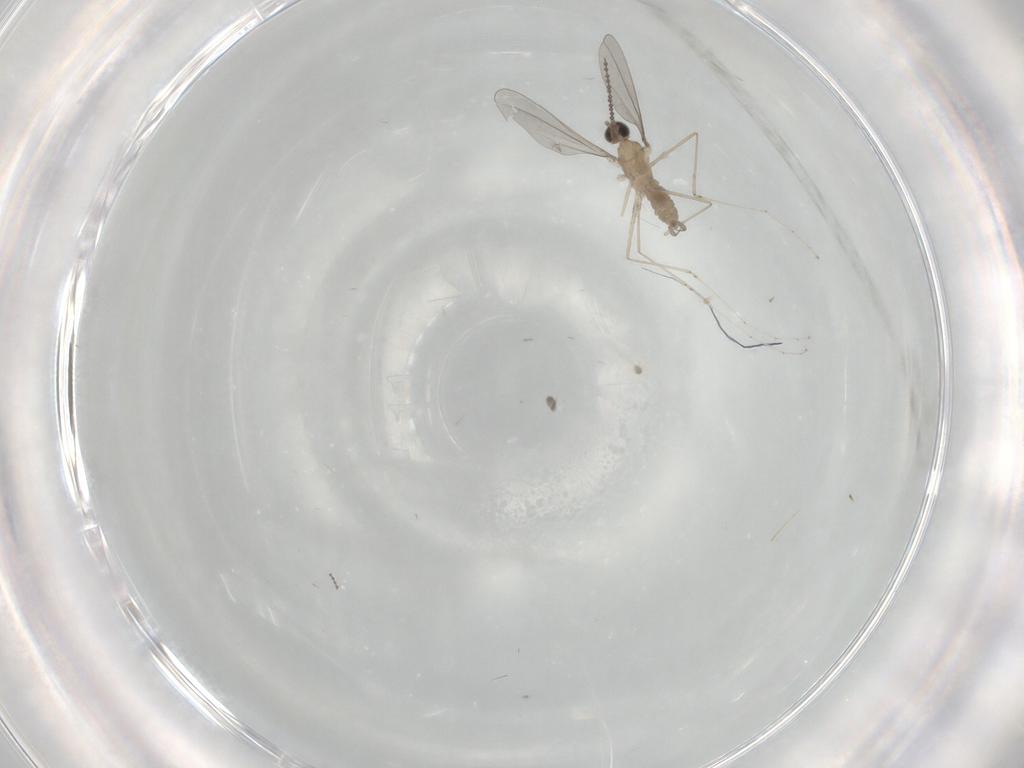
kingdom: Animalia
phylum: Arthropoda
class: Insecta
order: Diptera
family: Cecidomyiidae
